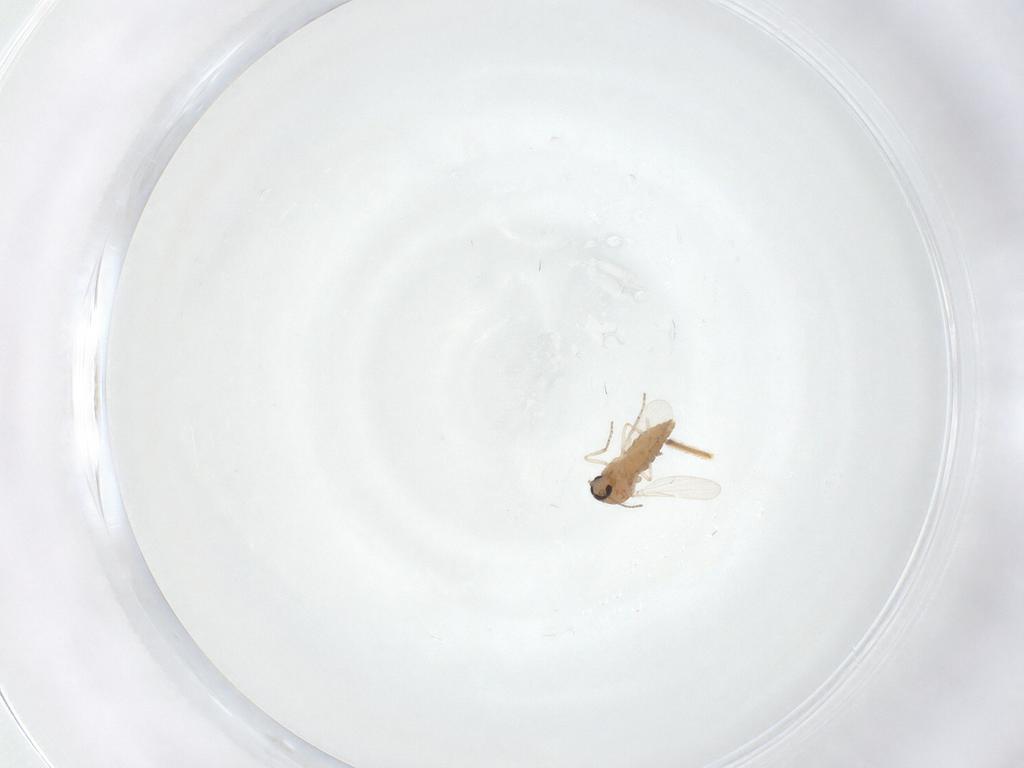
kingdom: Animalia
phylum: Arthropoda
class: Insecta
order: Diptera
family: Ceratopogonidae
